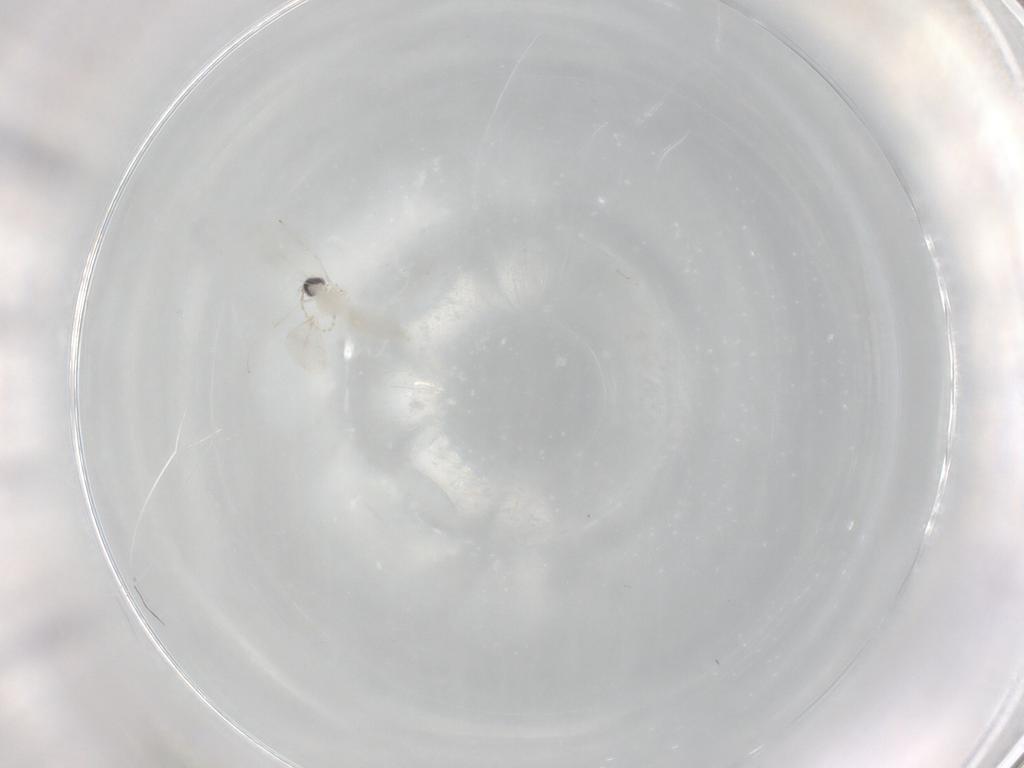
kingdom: Animalia
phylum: Arthropoda
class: Insecta
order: Diptera
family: Cecidomyiidae
